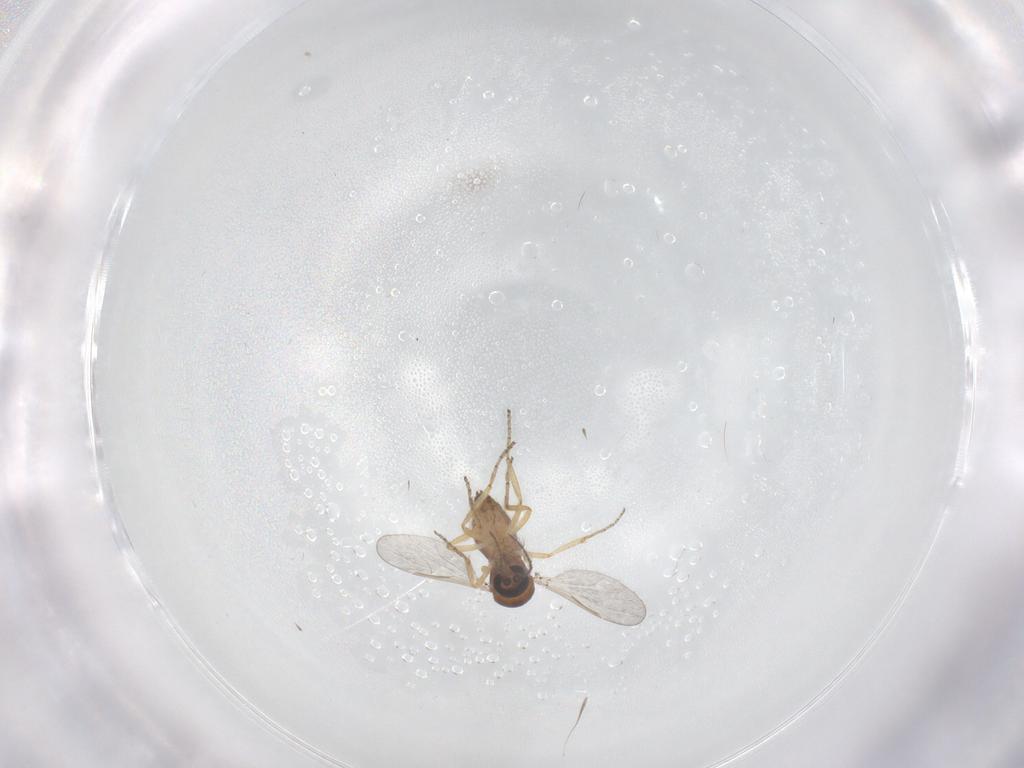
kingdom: Animalia
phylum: Arthropoda
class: Insecta
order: Diptera
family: Ceratopogonidae
